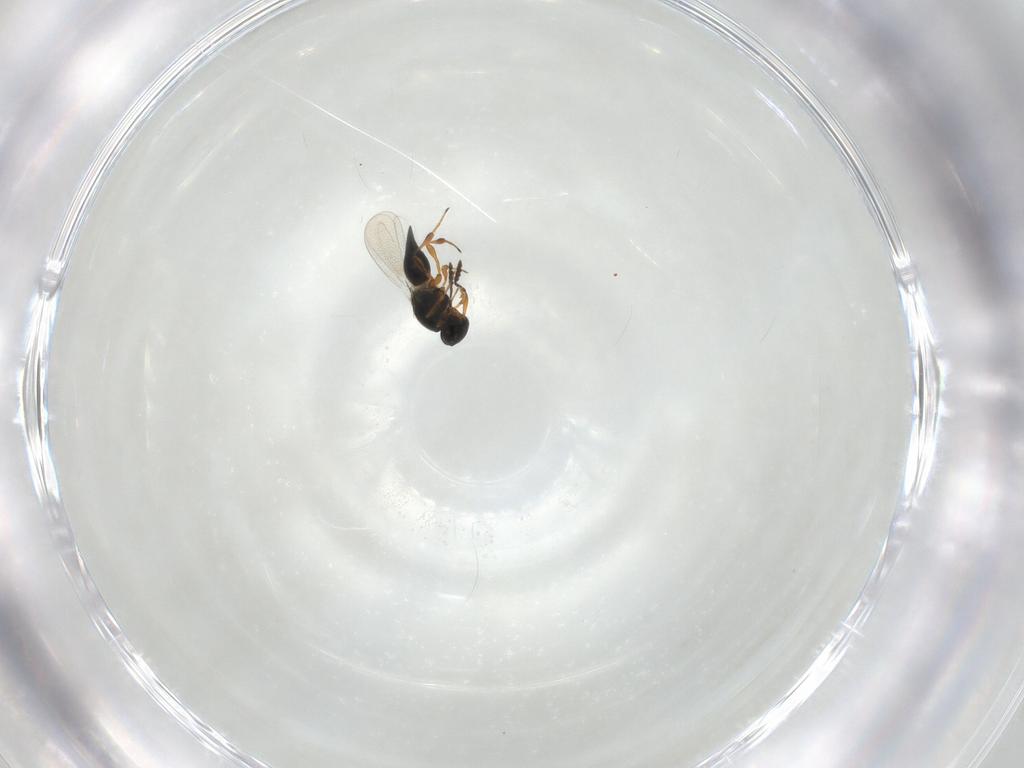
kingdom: Animalia
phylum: Arthropoda
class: Insecta
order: Hymenoptera
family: Platygastridae
